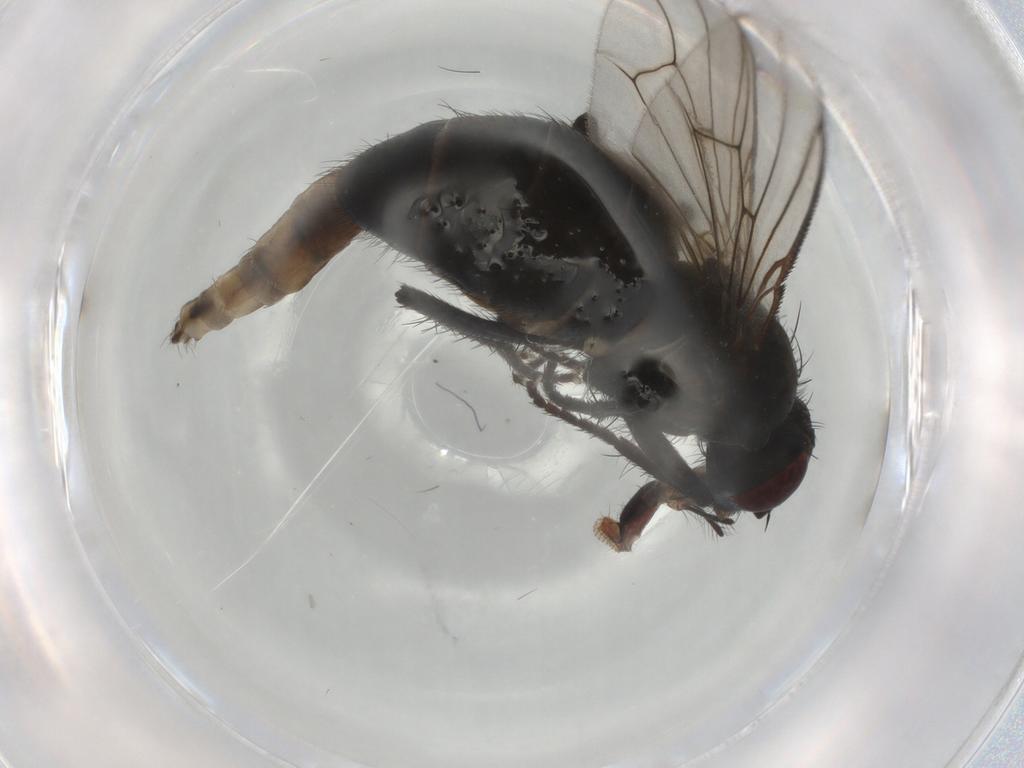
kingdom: Animalia
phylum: Arthropoda
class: Insecta
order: Diptera
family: Muscidae
